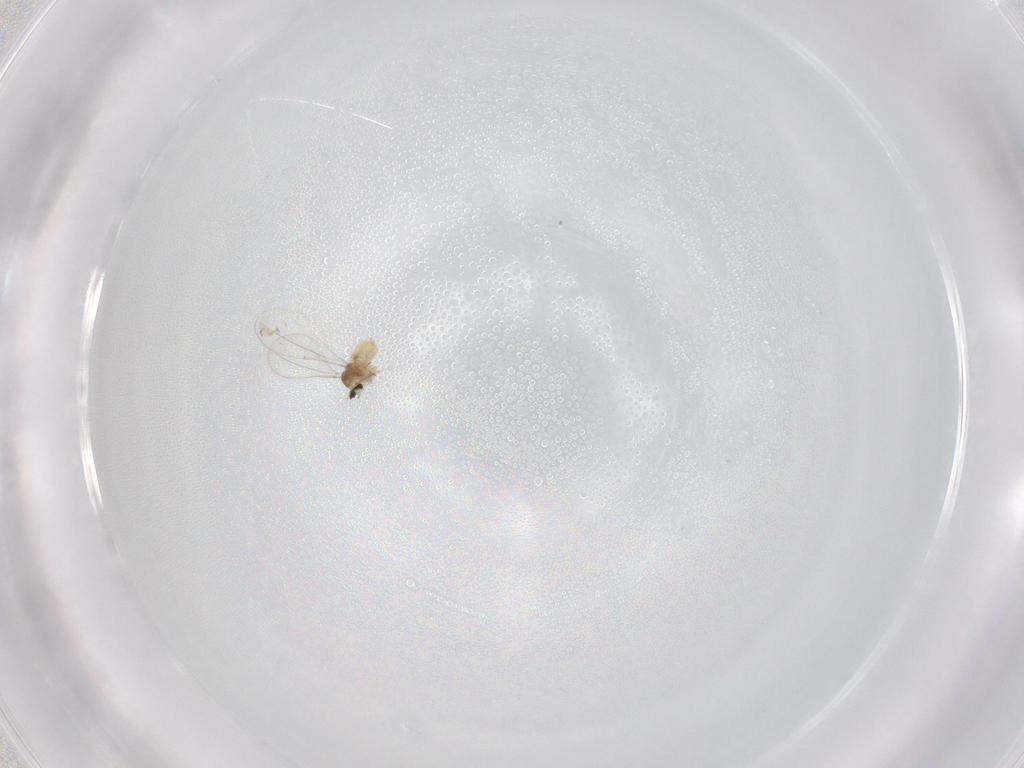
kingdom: Animalia
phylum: Arthropoda
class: Insecta
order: Diptera
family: Cecidomyiidae
